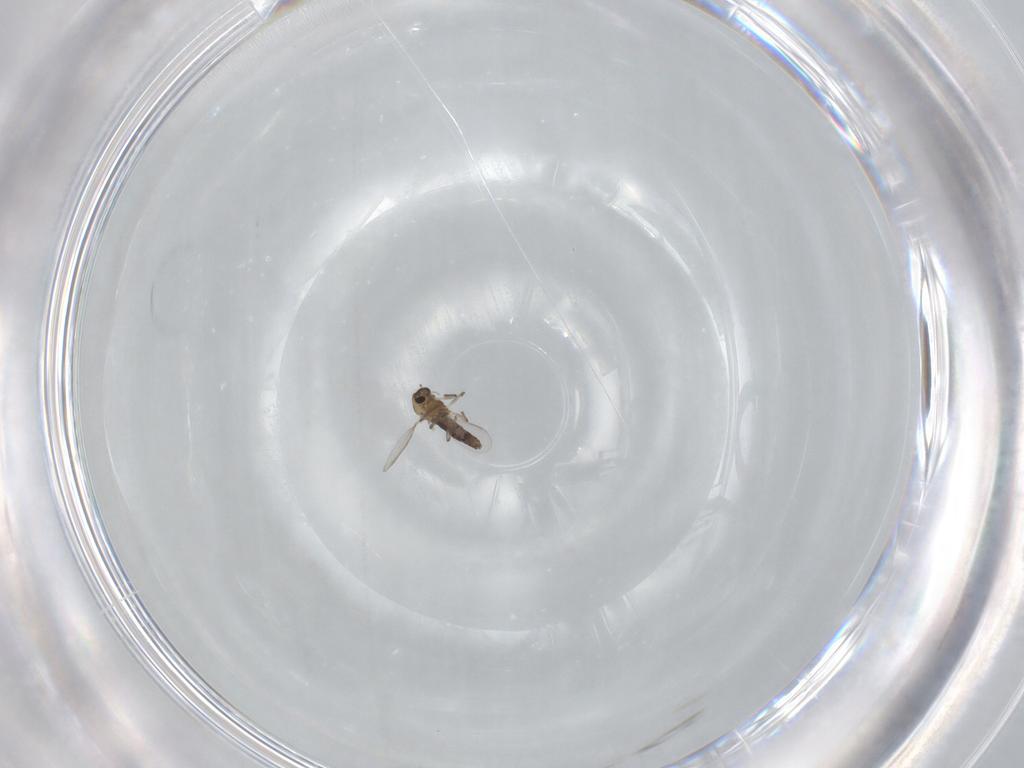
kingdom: Animalia
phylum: Arthropoda
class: Insecta
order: Diptera
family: Chironomidae
